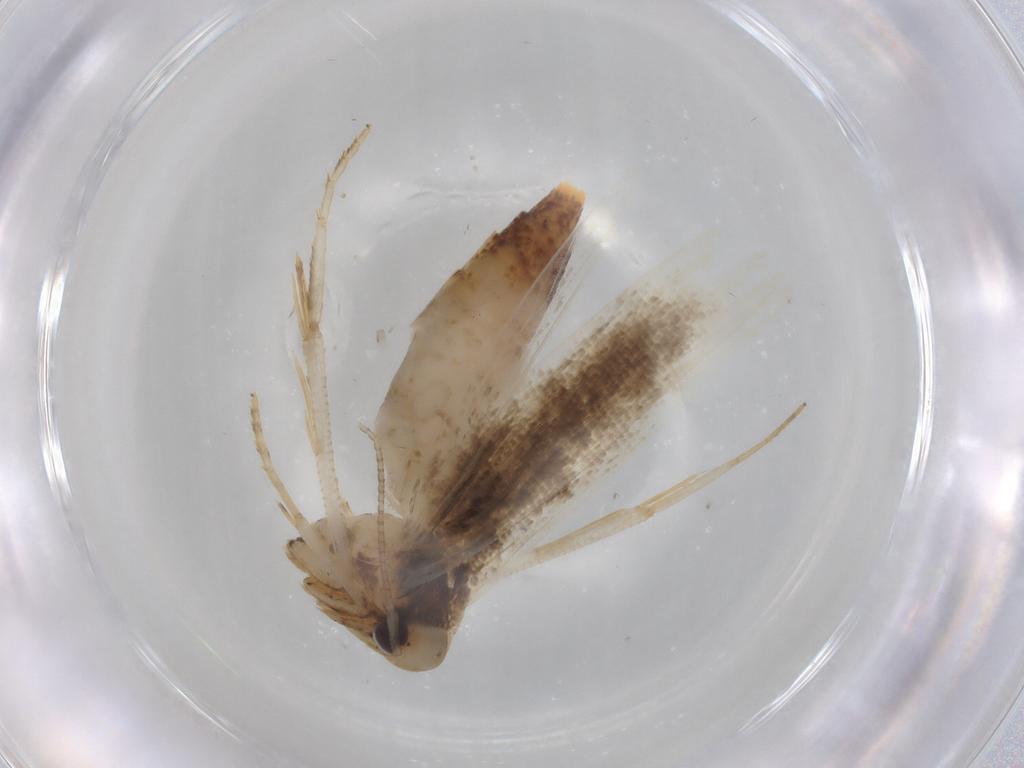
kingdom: Animalia
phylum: Arthropoda
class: Insecta
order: Lepidoptera
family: Scythrididae
